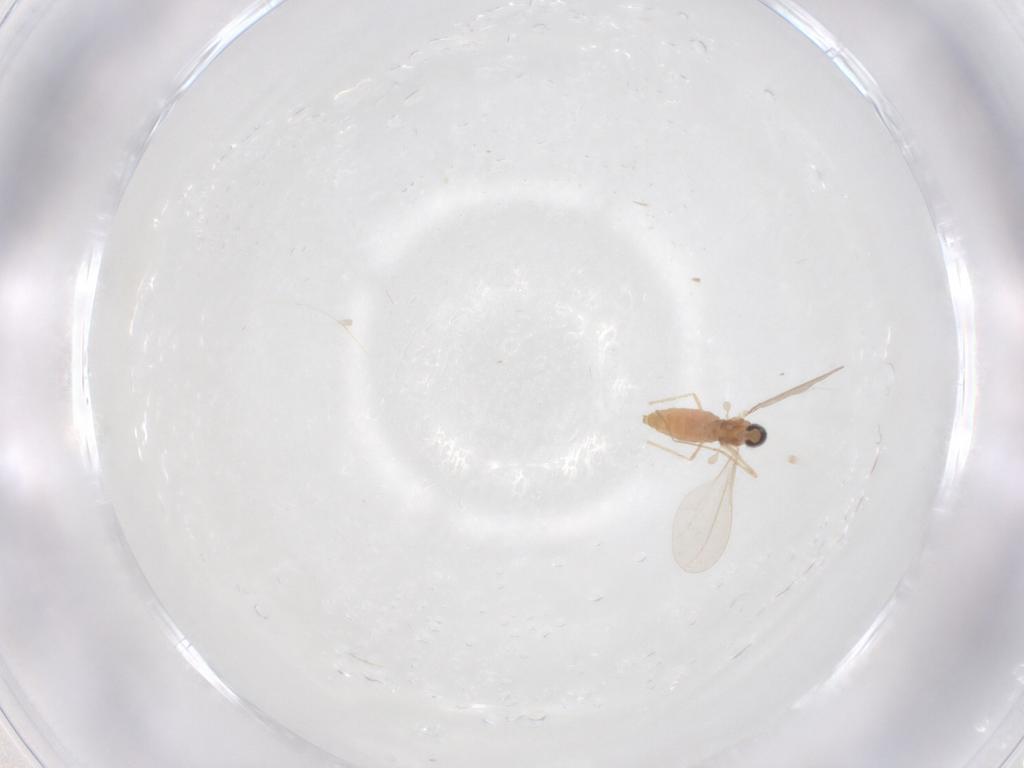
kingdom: Animalia
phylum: Arthropoda
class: Insecta
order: Diptera
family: Cecidomyiidae
